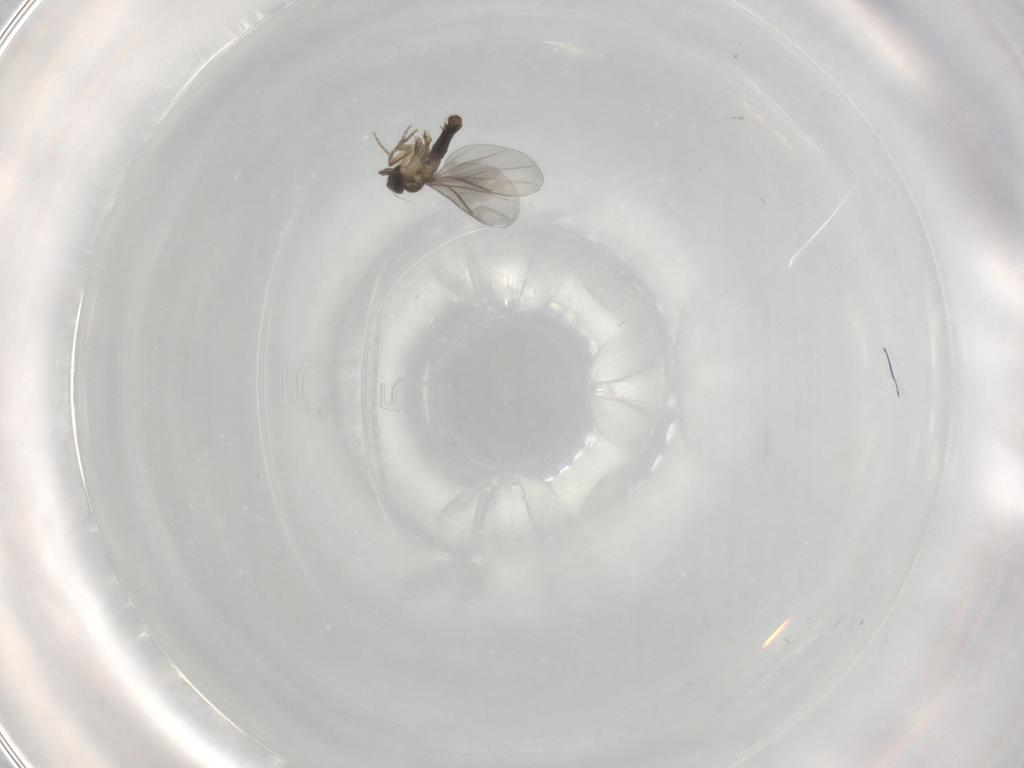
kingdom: Animalia
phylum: Arthropoda
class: Insecta
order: Diptera
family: Phoridae
